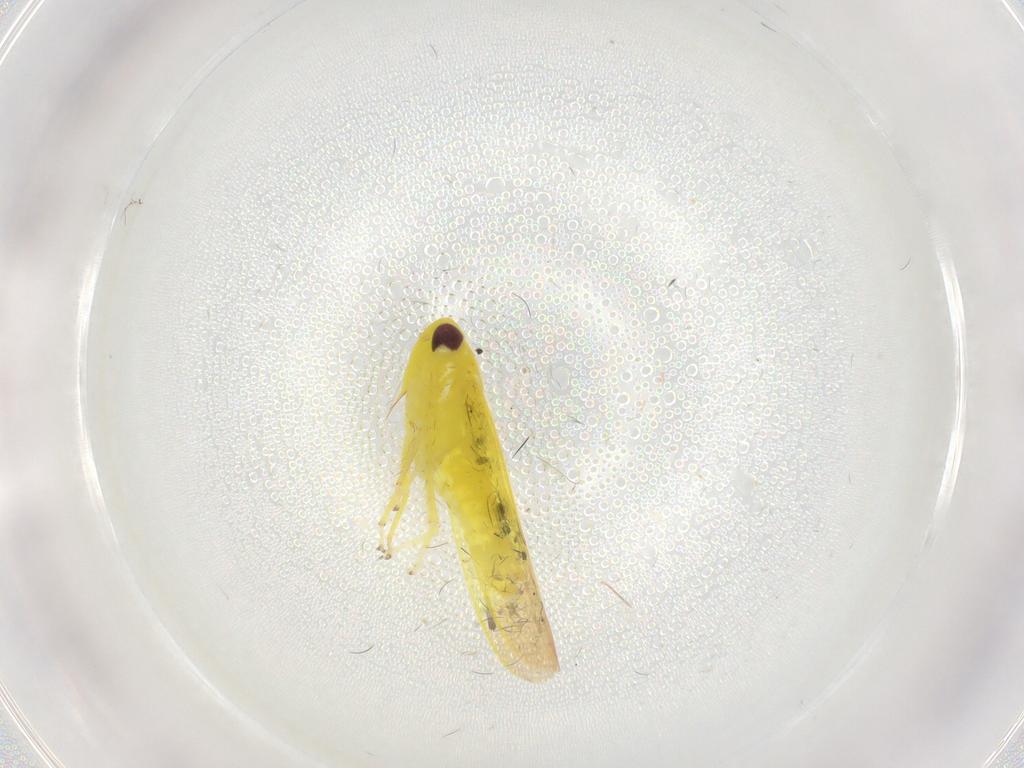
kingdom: Animalia
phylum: Arthropoda
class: Insecta
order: Hemiptera
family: Cicadellidae
